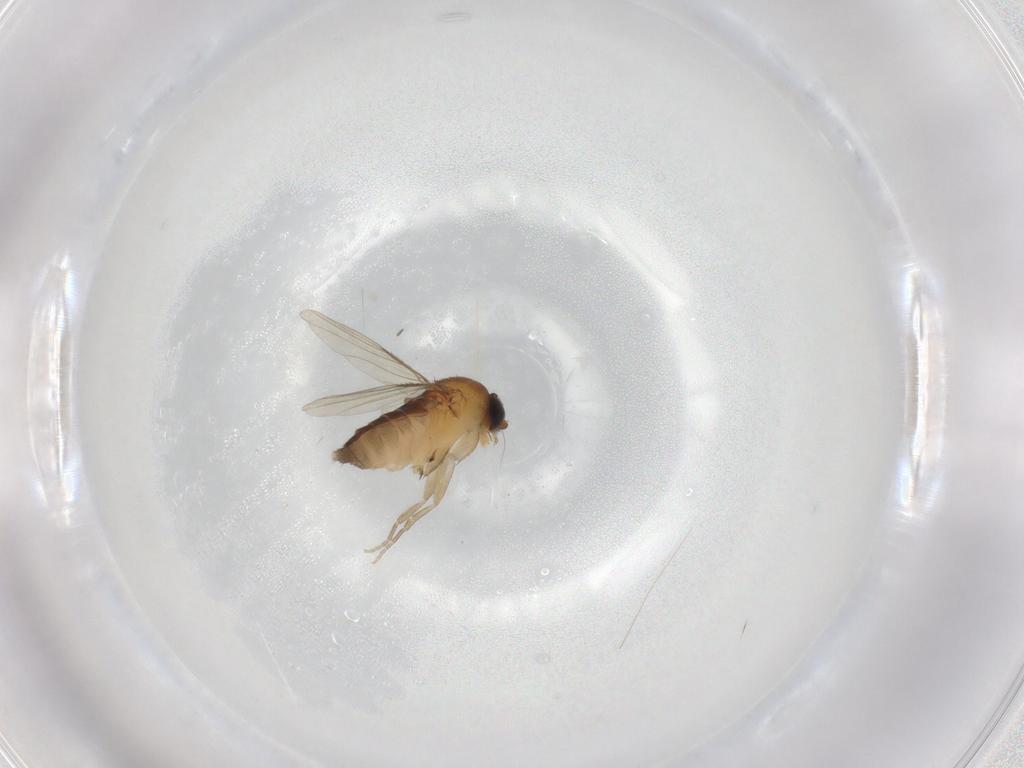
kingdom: Animalia
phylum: Arthropoda
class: Insecta
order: Diptera
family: Phoridae
